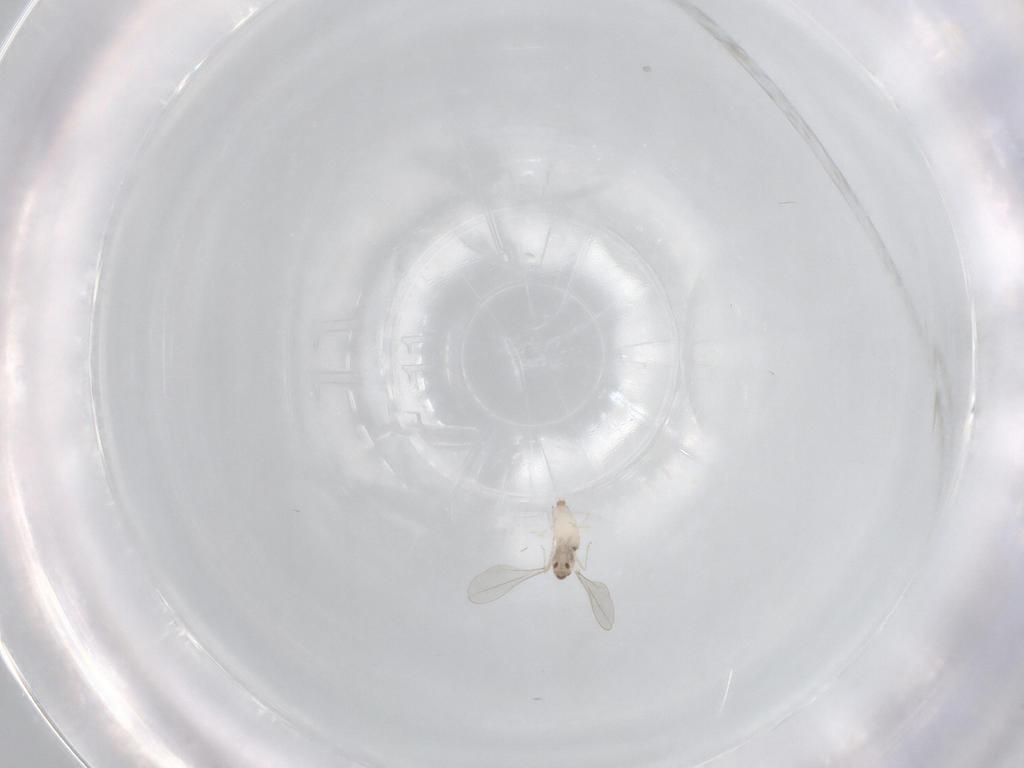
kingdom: Animalia
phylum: Arthropoda
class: Insecta
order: Diptera
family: Cecidomyiidae
